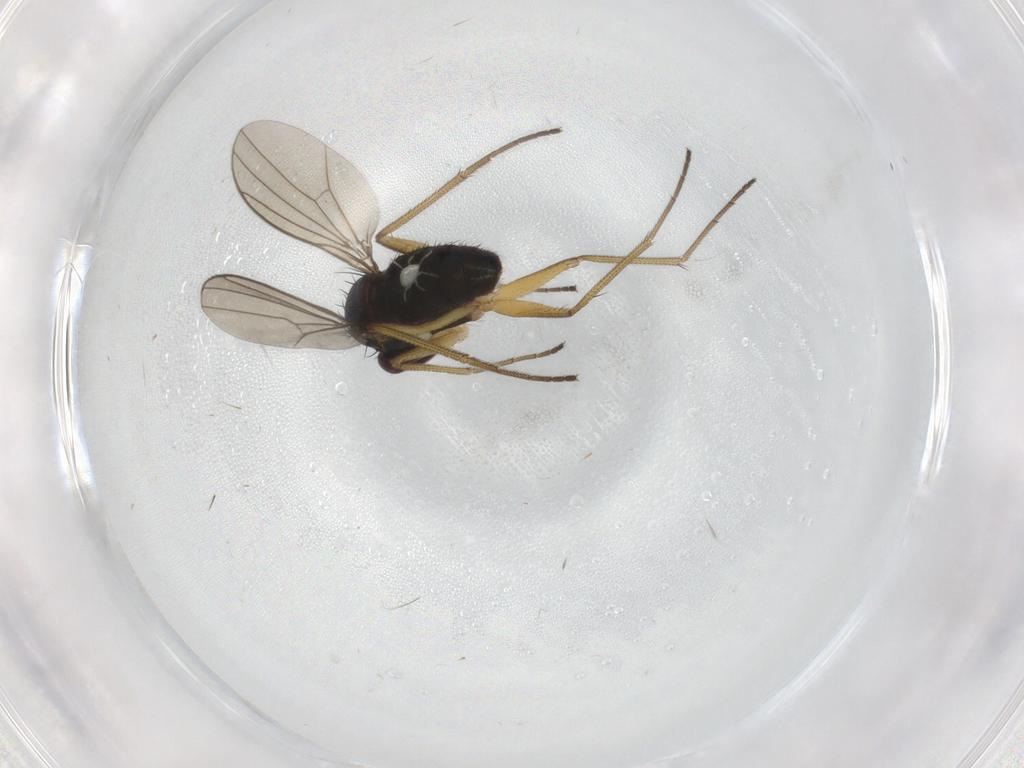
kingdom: Animalia
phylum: Arthropoda
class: Insecta
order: Diptera
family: Dolichopodidae
